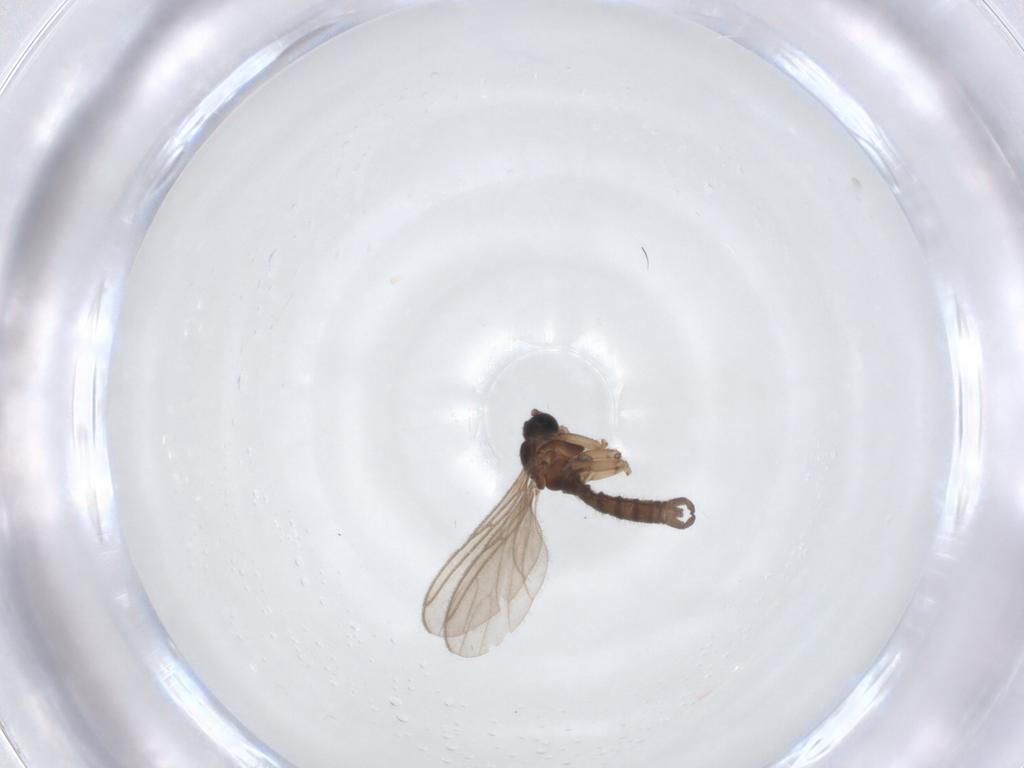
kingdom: Animalia
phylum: Arthropoda
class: Insecta
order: Diptera
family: Sciaridae
